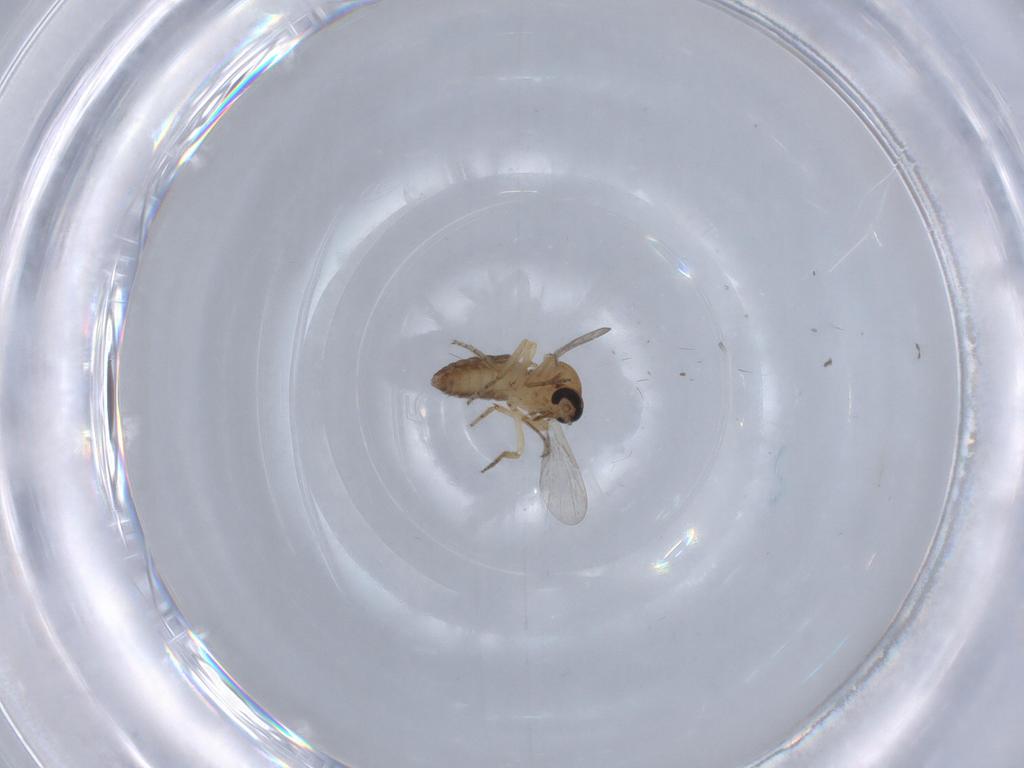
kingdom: Animalia
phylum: Arthropoda
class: Insecta
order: Diptera
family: Ceratopogonidae
